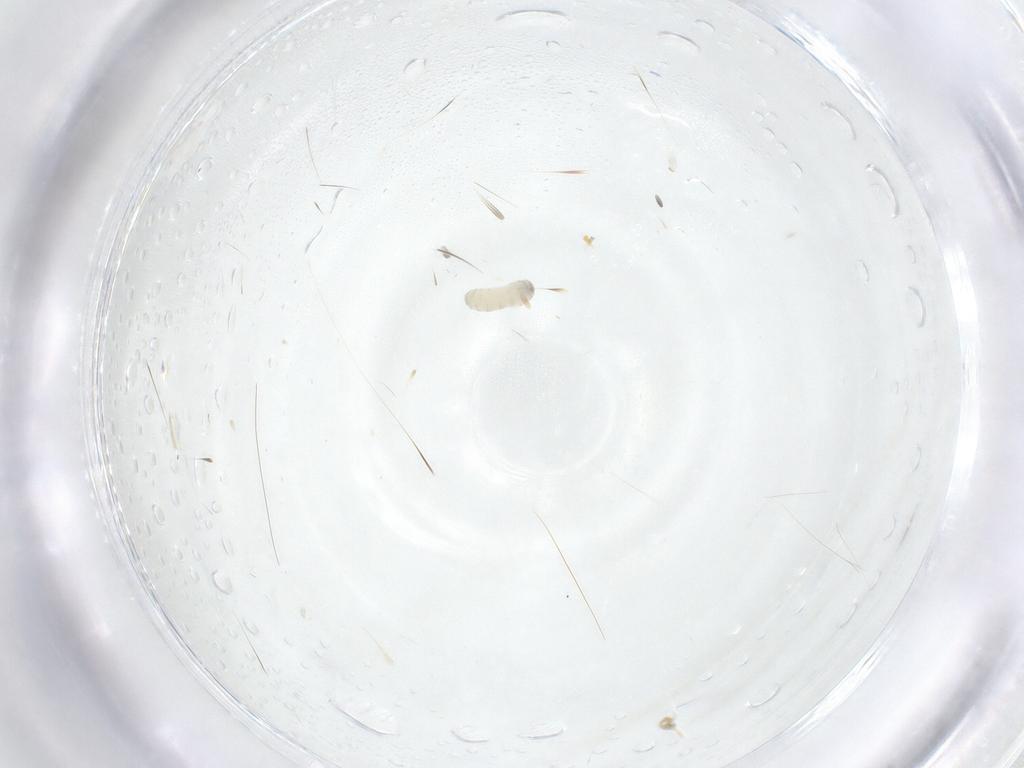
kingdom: Animalia
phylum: Arthropoda
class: Insecta
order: Diptera
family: Tachinidae
